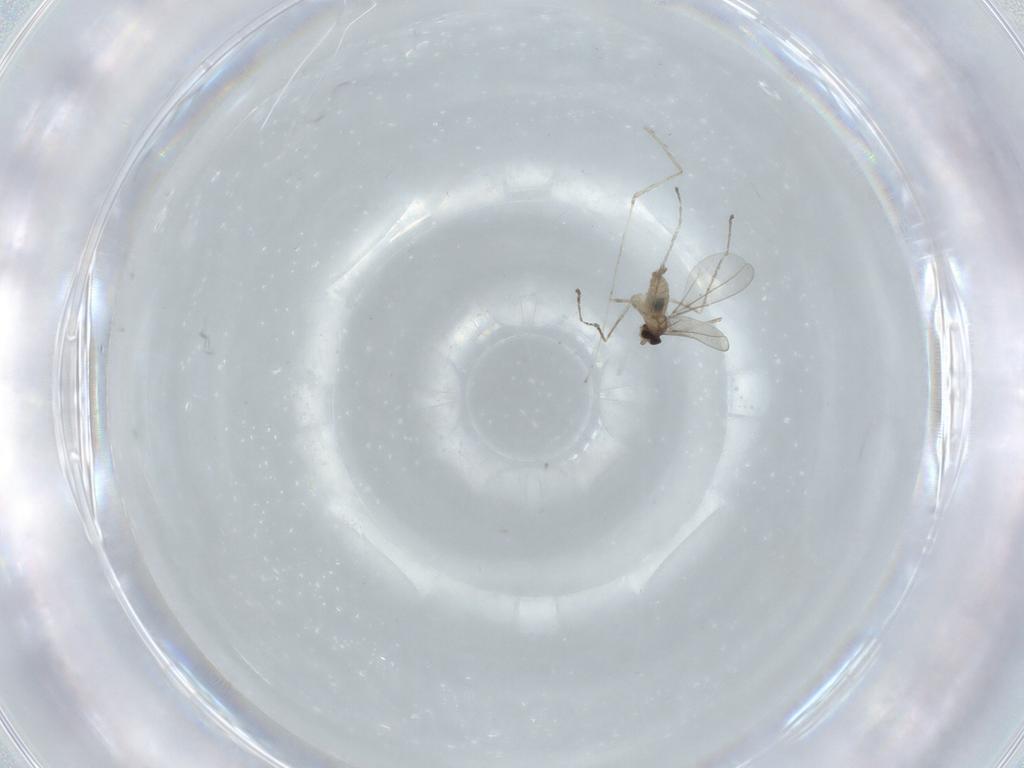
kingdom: Animalia
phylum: Arthropoda
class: Insecta
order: Diptera
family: Cecidomyiidae
